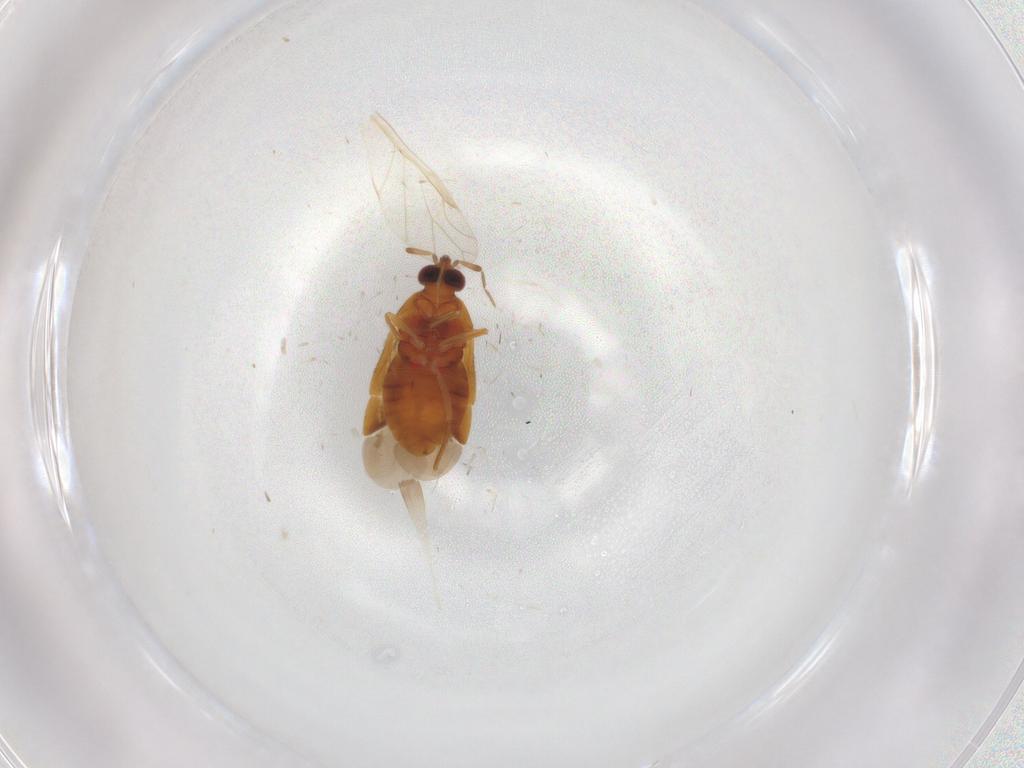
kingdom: Animalia
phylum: Arthropoda
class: Insecta
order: Hemiptera
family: Aphididae
